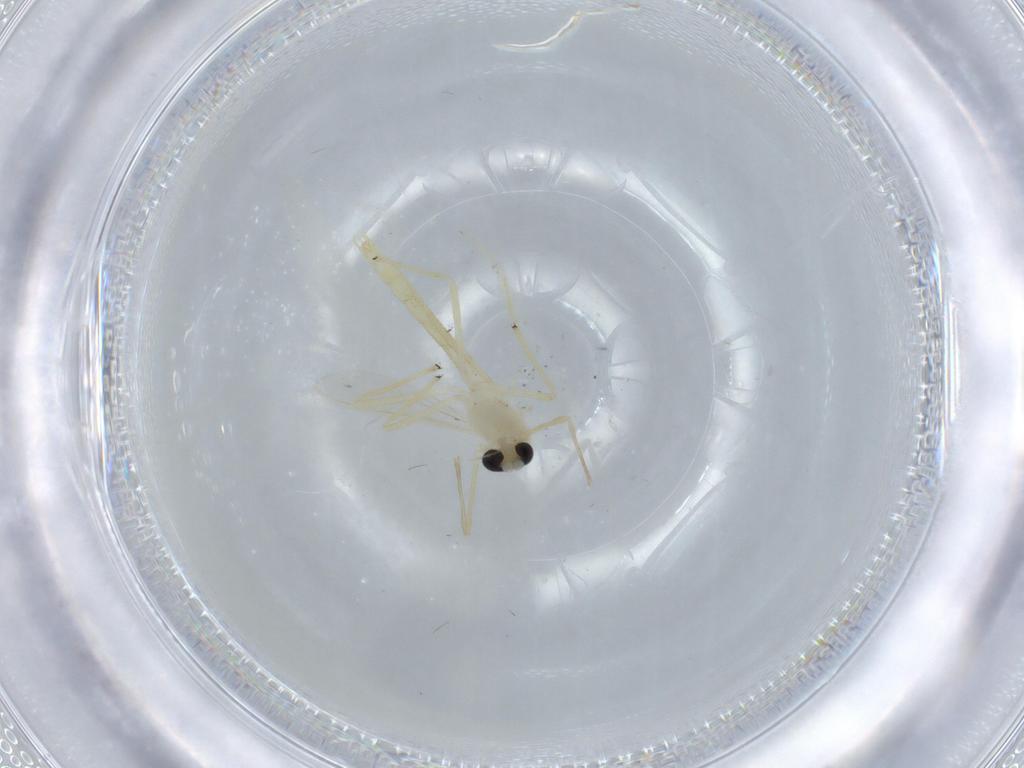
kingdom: Animalia
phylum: Arthropoda
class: Insecta
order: Diptera
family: Chironomidae
